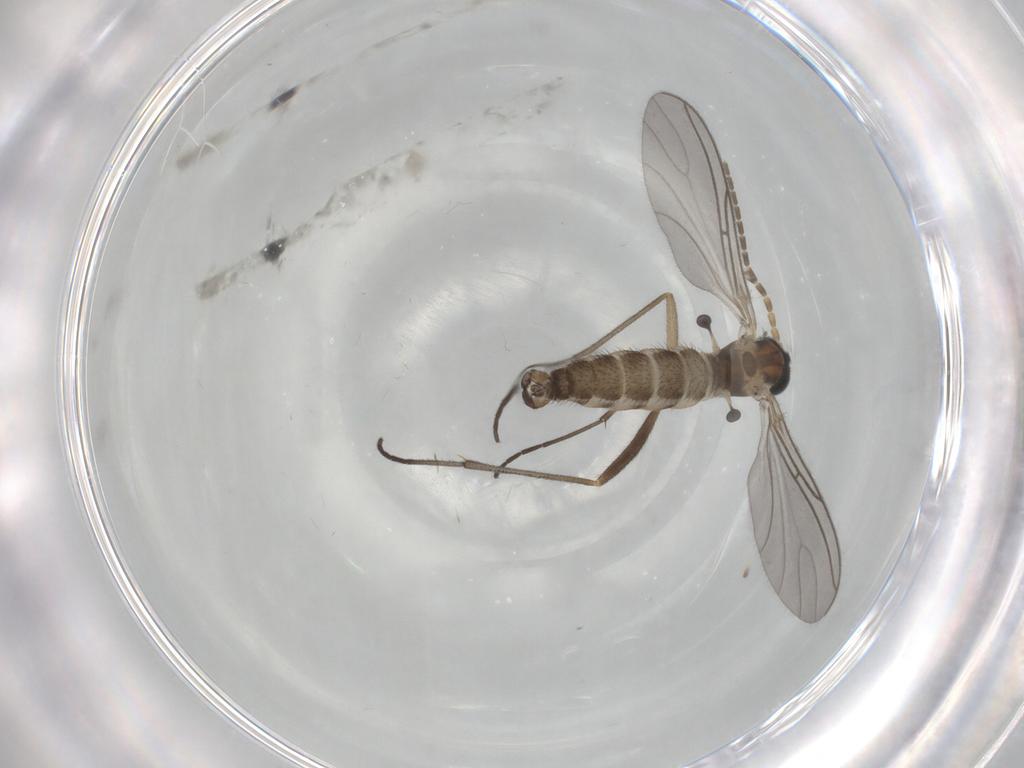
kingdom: Animalia
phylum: Arthropoda
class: Insecta
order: Diptera
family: Sciaridae
